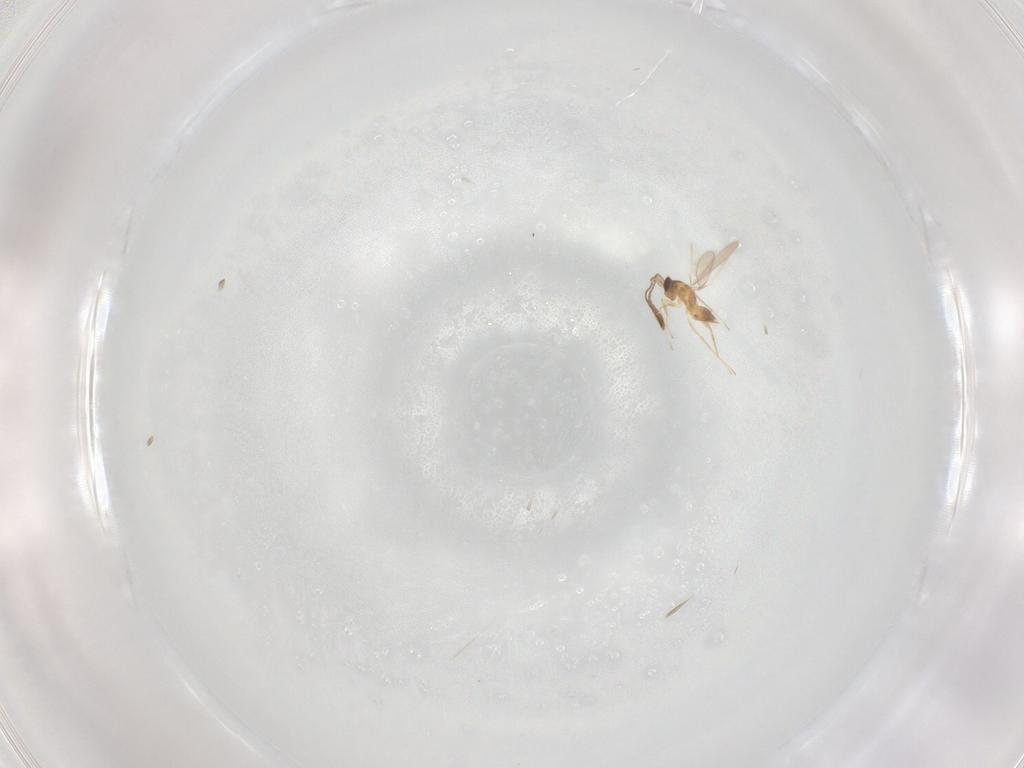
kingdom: Animalia
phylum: Arthropoda
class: Insecta
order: Hymenoptera
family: Mymaridae
